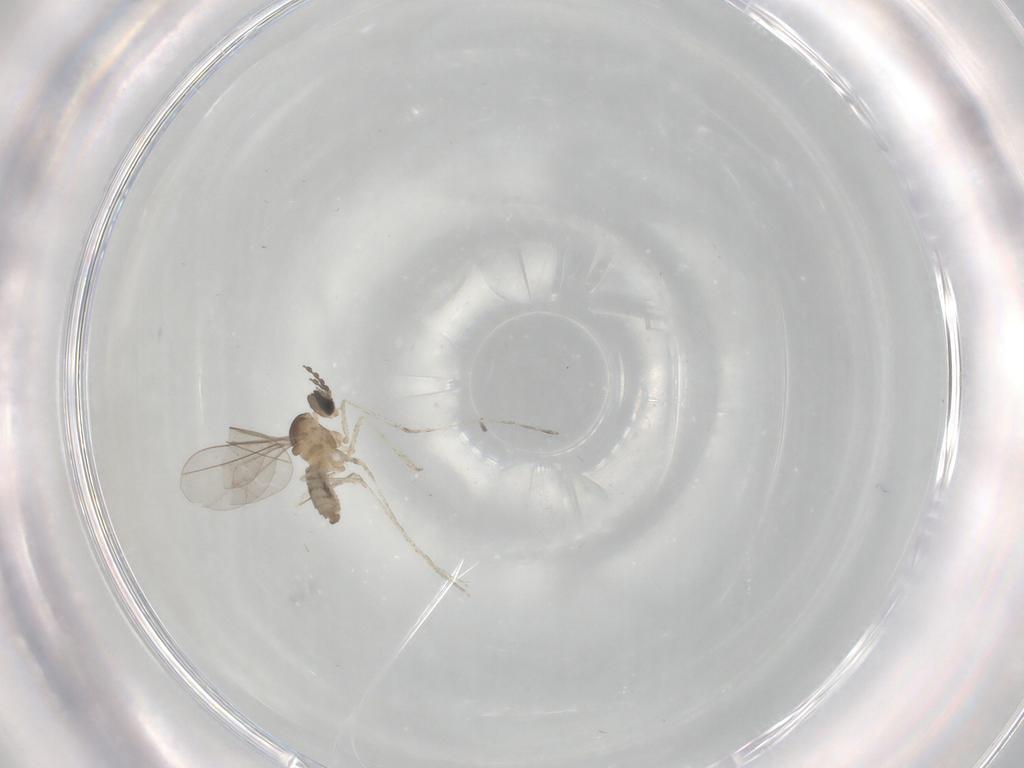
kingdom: Animalia
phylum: Arthropoda
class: Insecta
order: Diptera
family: Cecidomyiidae
